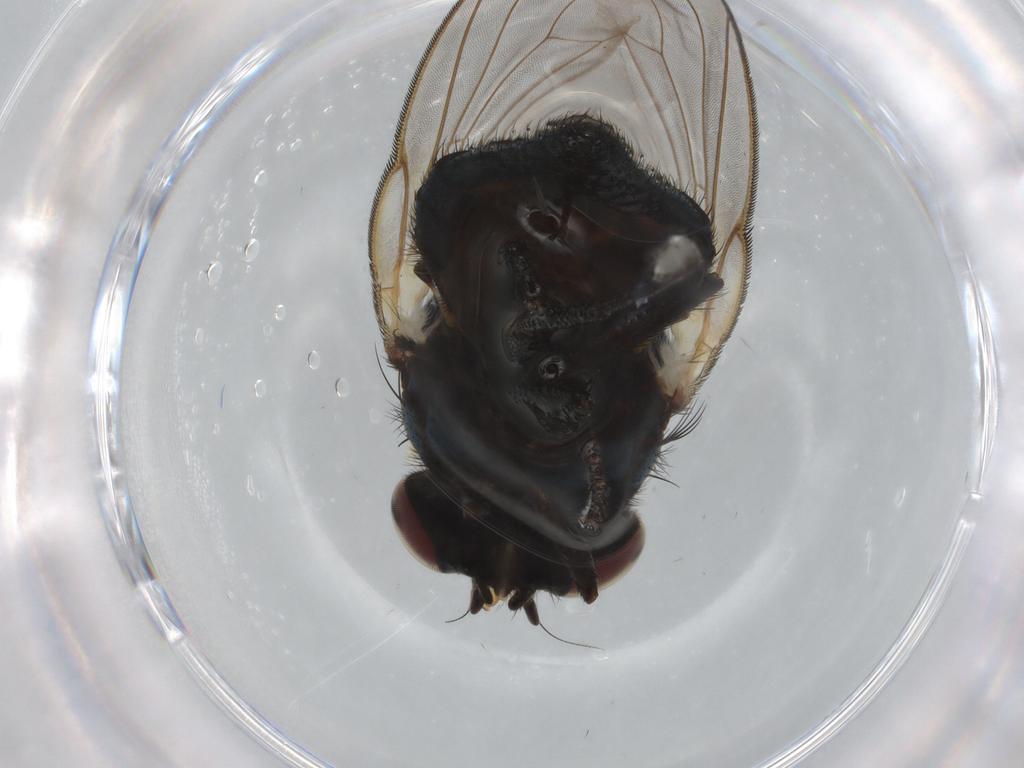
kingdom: Animalia
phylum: Arthropoda
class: Insecta
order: Diptera
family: Lonchaeidae
